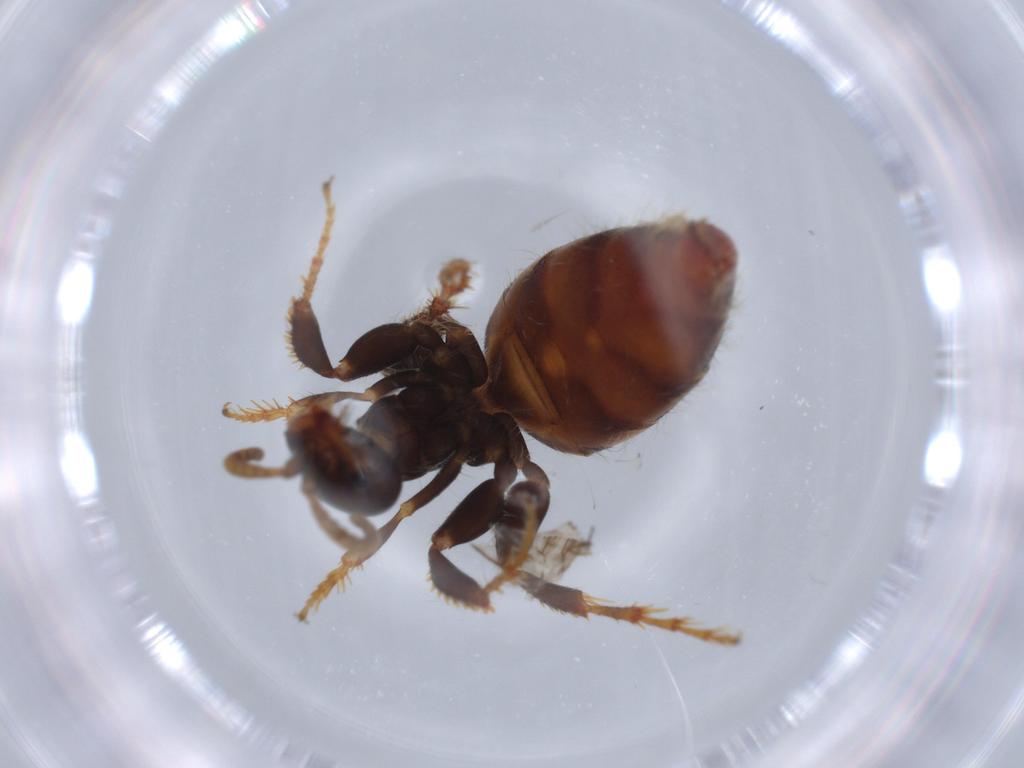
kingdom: Animalia
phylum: Arthropoda
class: Insecta
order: Hymenoptera
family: Crabronidae
